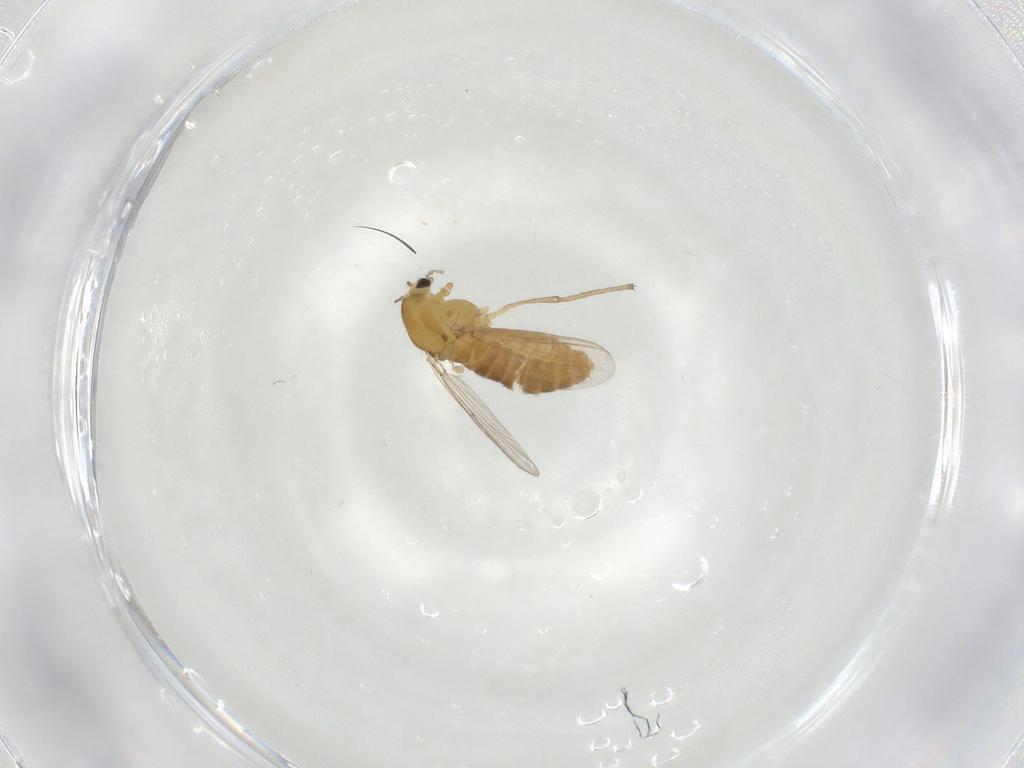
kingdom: Animalia
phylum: Arthropoda
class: Insecta
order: Diptera
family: Chironomidae
